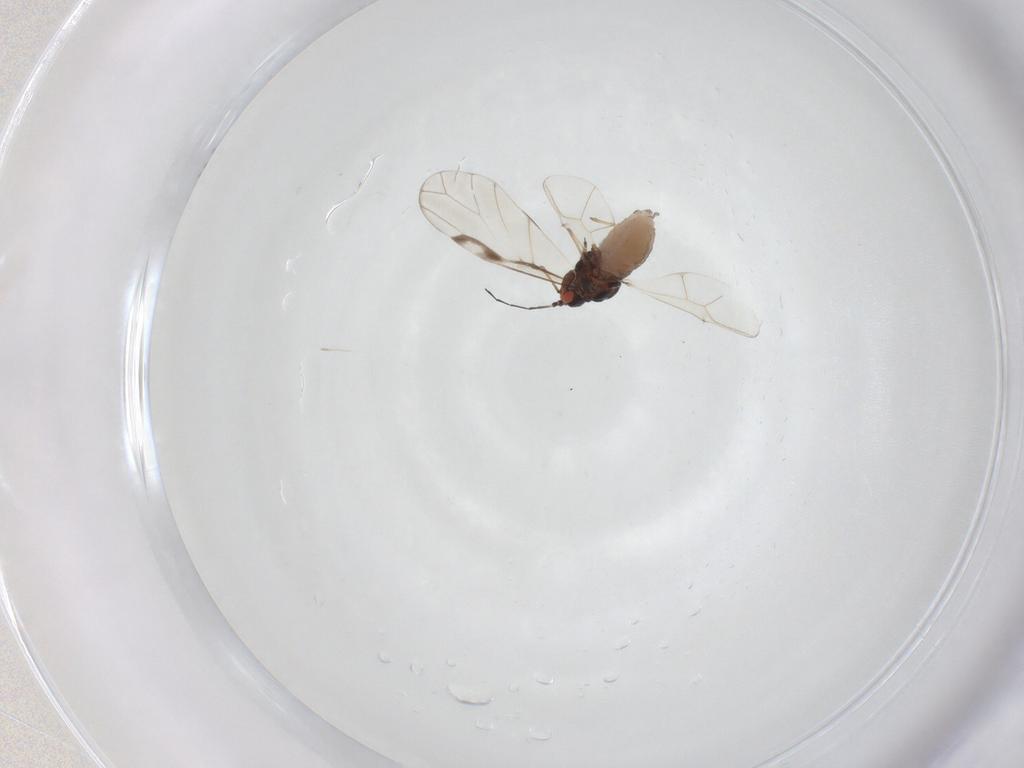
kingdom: Animalia
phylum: Arthropoda
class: Insecta
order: Hemiptera
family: Aphididae
